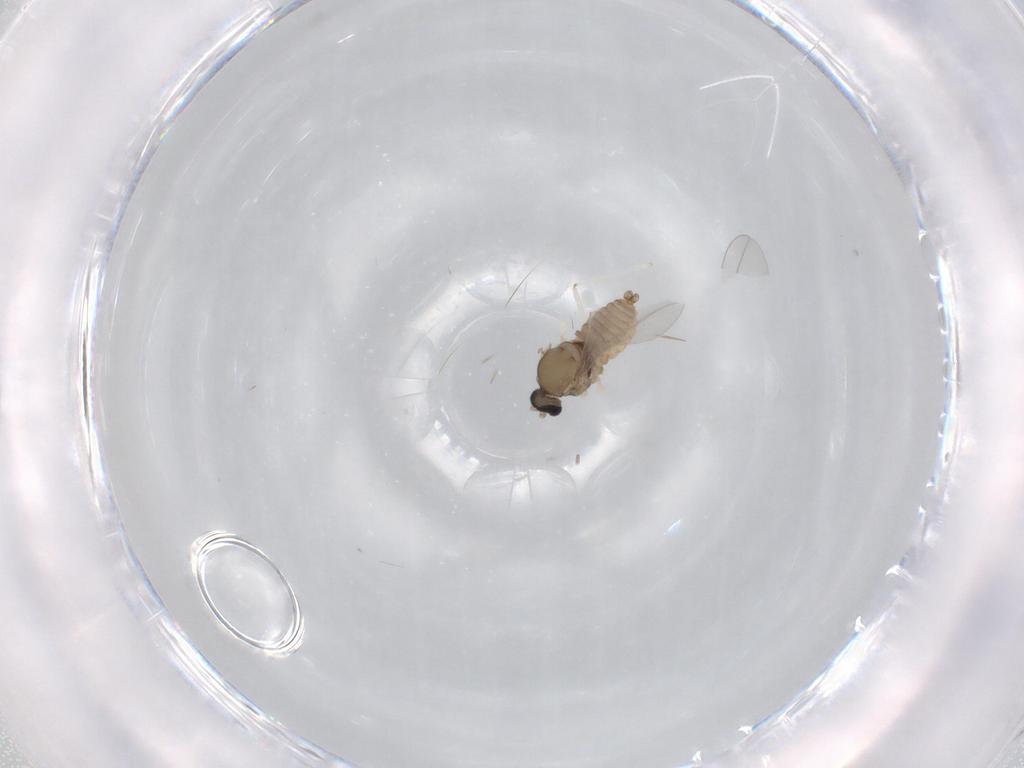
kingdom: Animalia
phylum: Arthropoda
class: Insecta
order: Diptera
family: Cecidomyiidae
